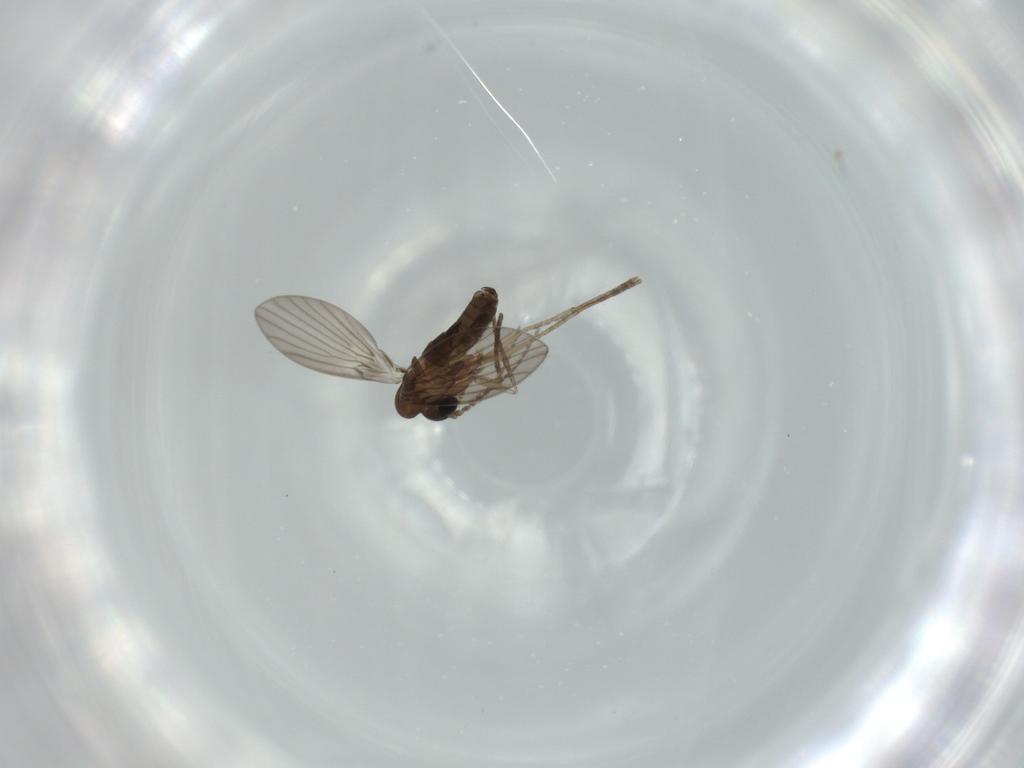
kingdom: Animalia
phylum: Arthropoda
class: Insecta
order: Diptera
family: Psychodidae
